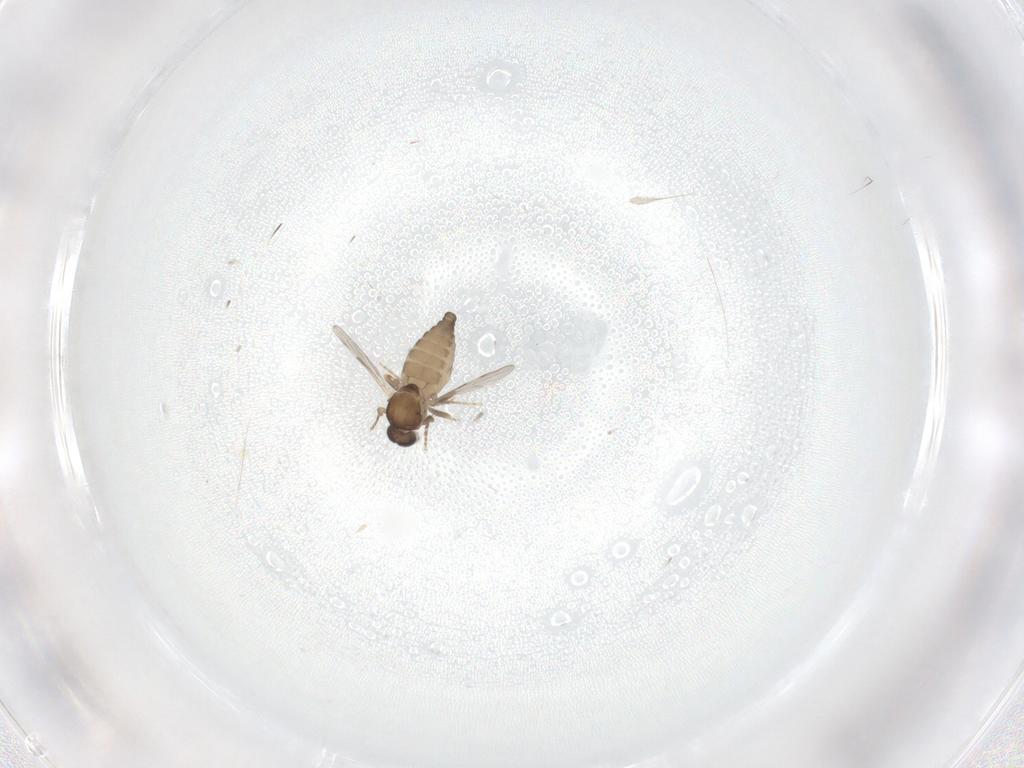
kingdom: Animalia
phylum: Arthropoda
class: Insecta
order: Diptera
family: Ceratopogonidae
